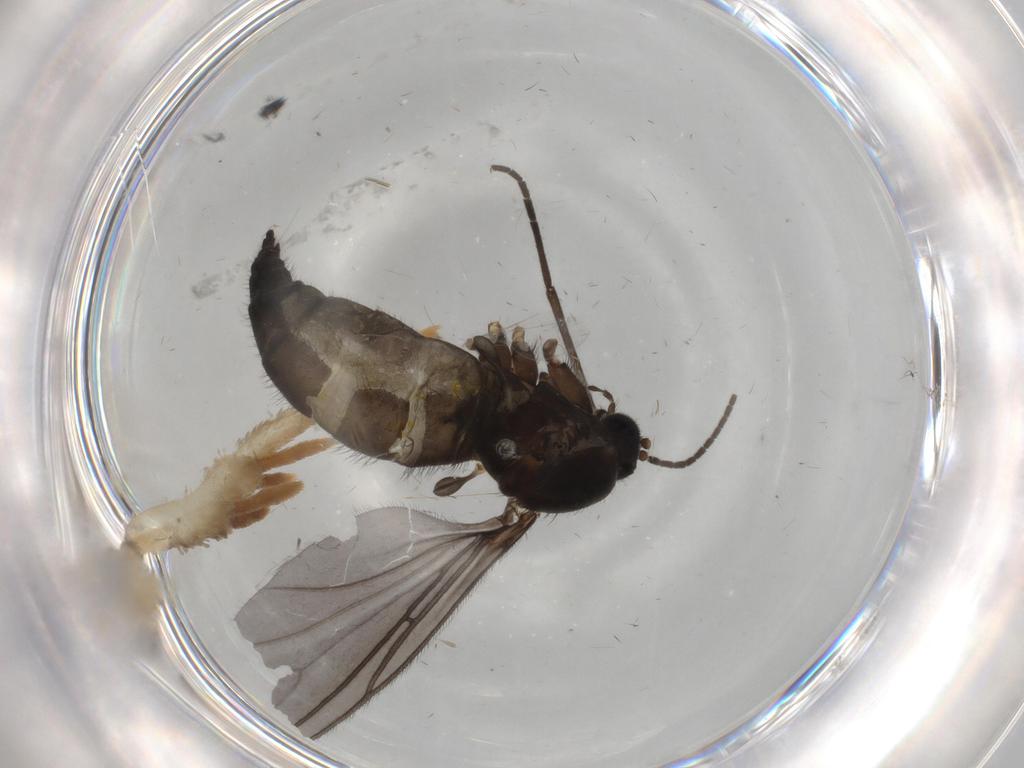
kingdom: Animalia
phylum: Arthropoda
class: Insecta
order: Diptera
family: Sciaridae
